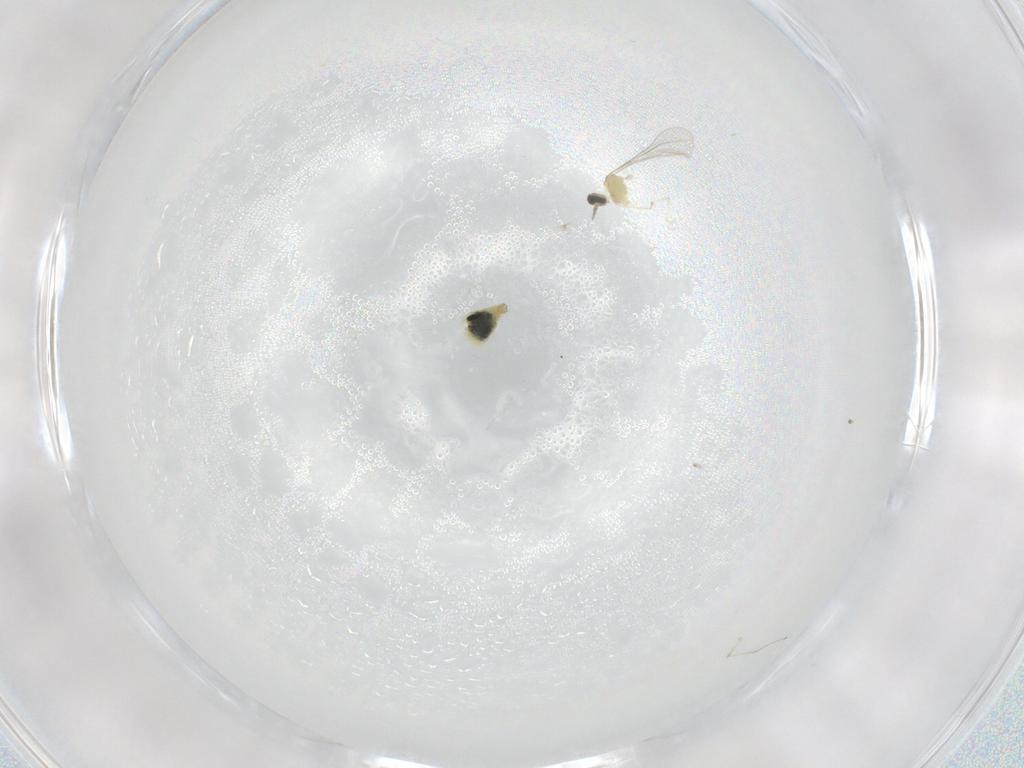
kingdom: Animalia
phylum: Arthropoda
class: Insecta
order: Diptera
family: Cecidomyiidae
